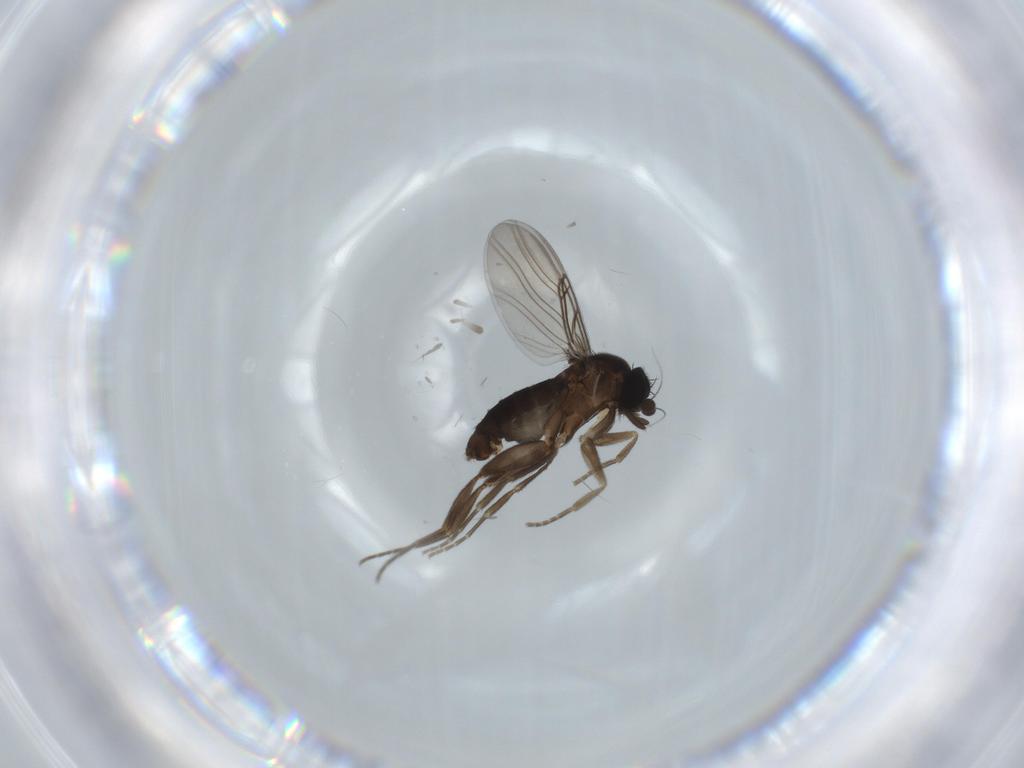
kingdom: Animalia
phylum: Arthropoda
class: Insecta
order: Diptera
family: Phoridae
